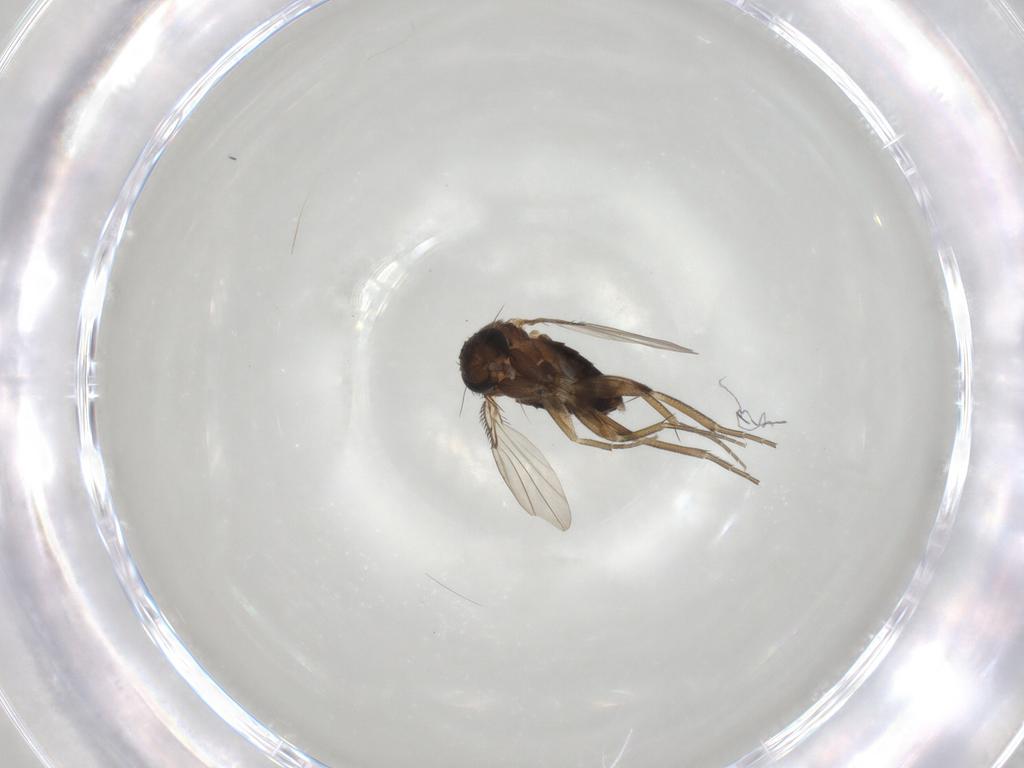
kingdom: Animalia
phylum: Arthropoda
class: Insecta
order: Diptera
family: Phoridae
